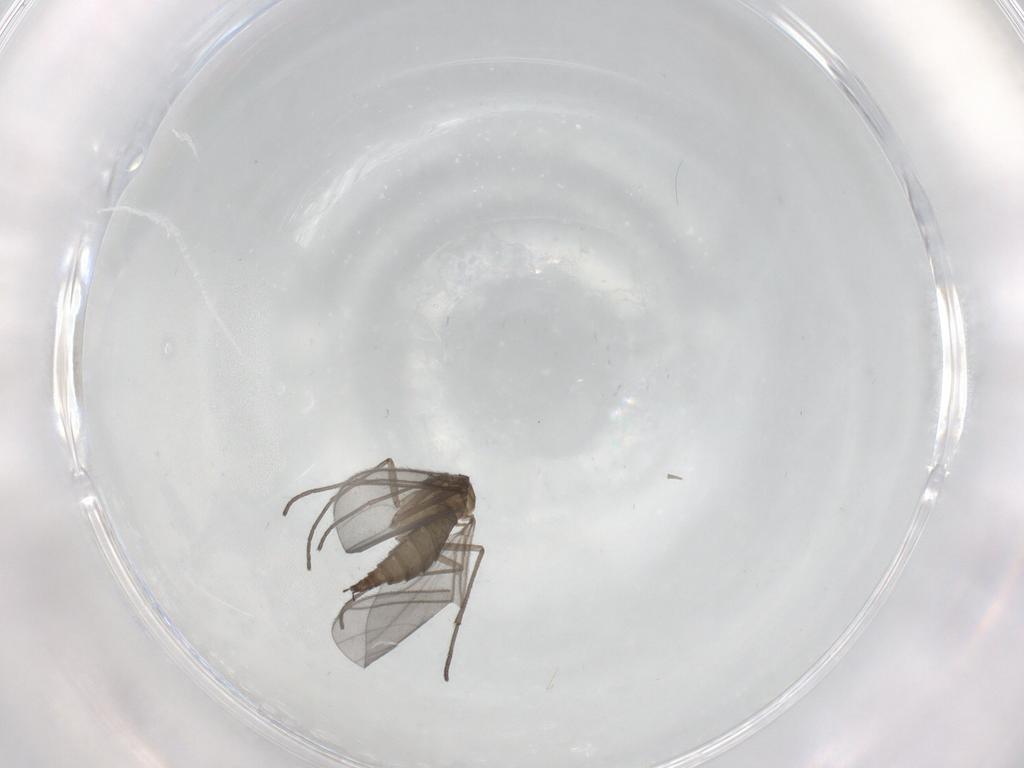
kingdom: Animalia
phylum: Arthropoda
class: Insecta
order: Diptera
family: Sciaridae
